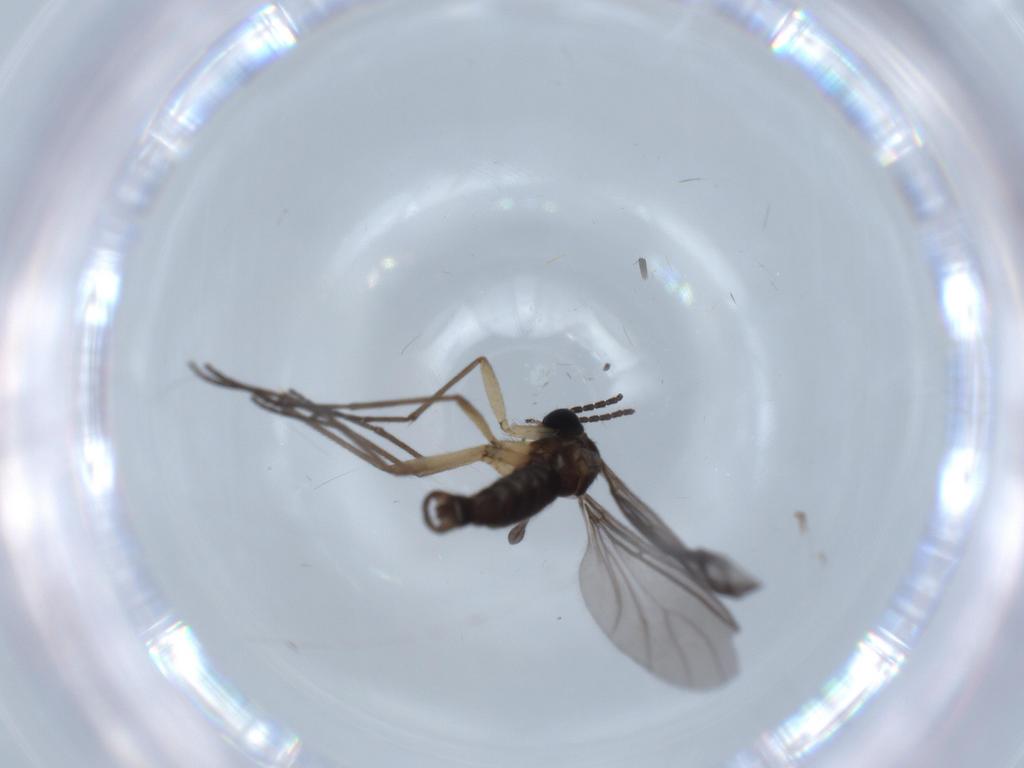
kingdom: Animalia
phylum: Arthropoda
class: Insecta
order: Diptera
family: Sciaridae
